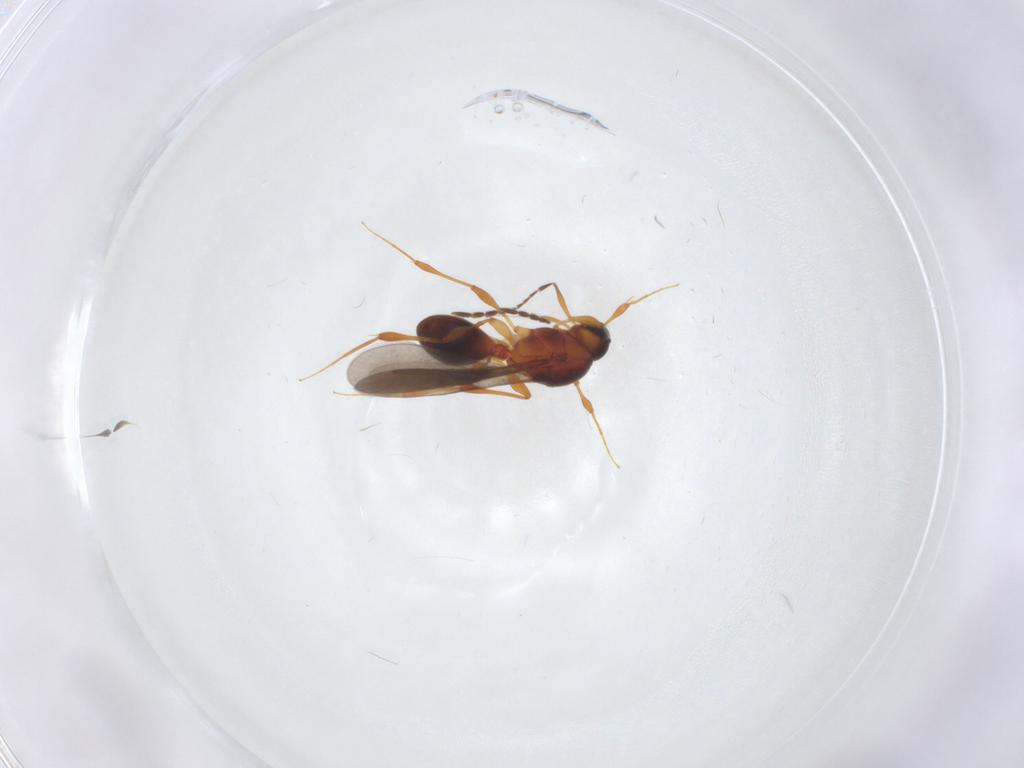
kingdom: Animalia
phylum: Arthropoda
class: Insecta
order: Hymenoptera
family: Platygastridae
